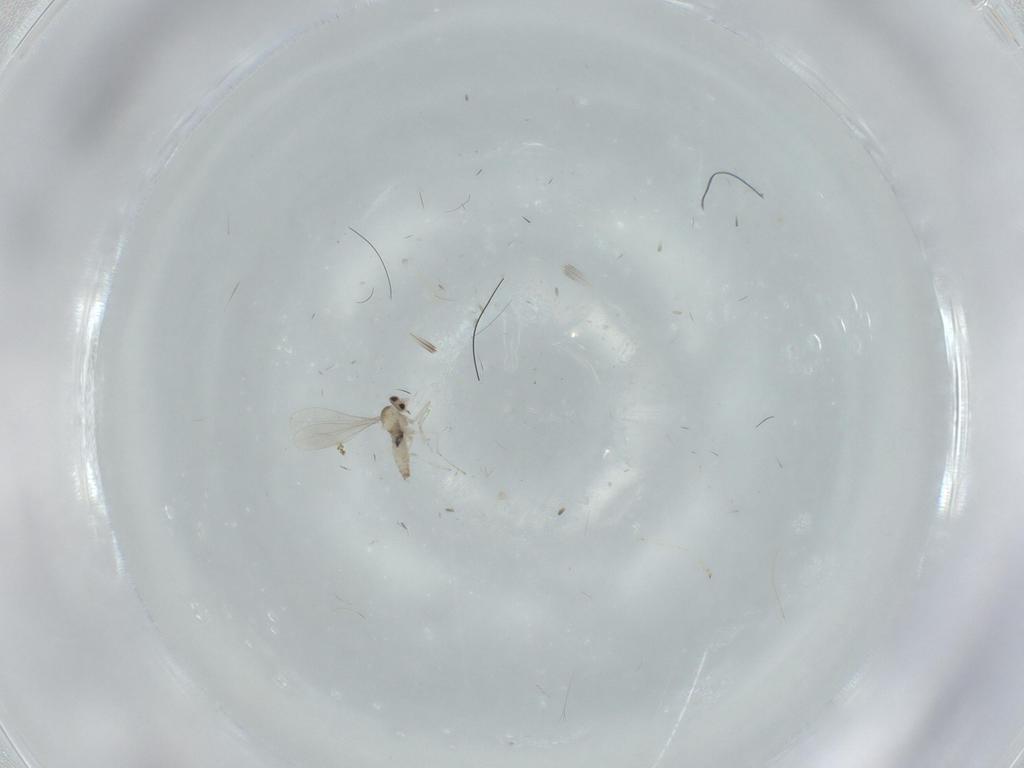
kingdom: Animalia
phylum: Arthropoda
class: Insecta
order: Diptera
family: Cecidomyiidae
